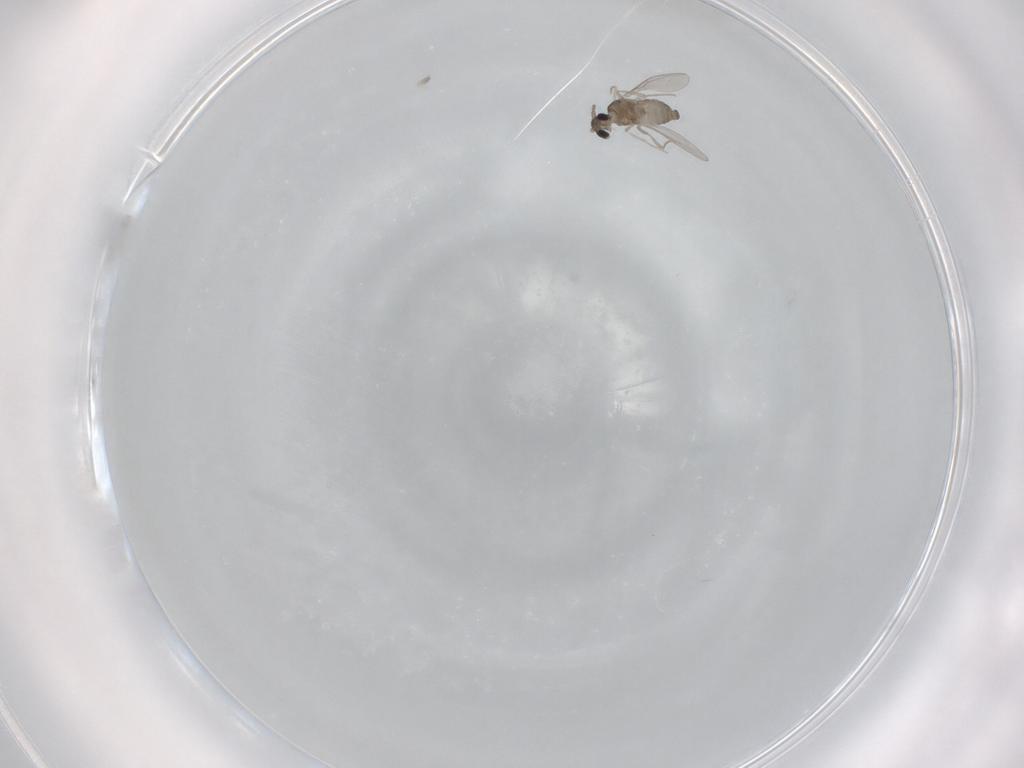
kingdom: Animalia
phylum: Arthropoda
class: Insecta
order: Diptera
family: Cecidomyiidae
